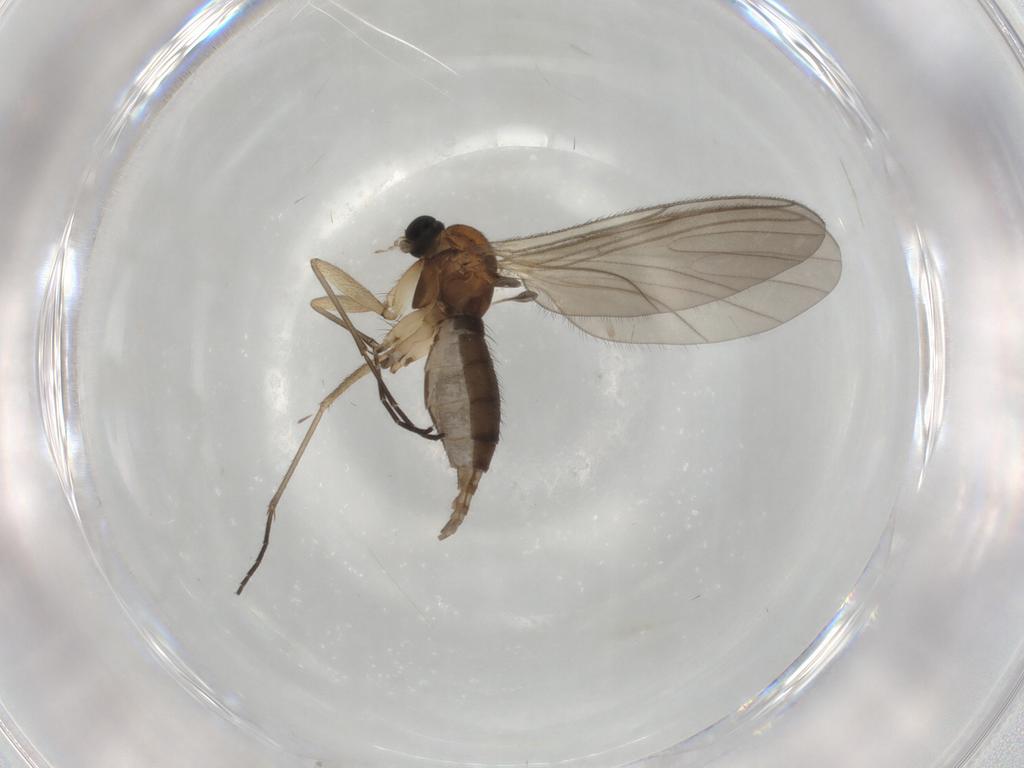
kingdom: Animalia
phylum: Arthropoda
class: Insecta
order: Diptera
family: Sciaridae
